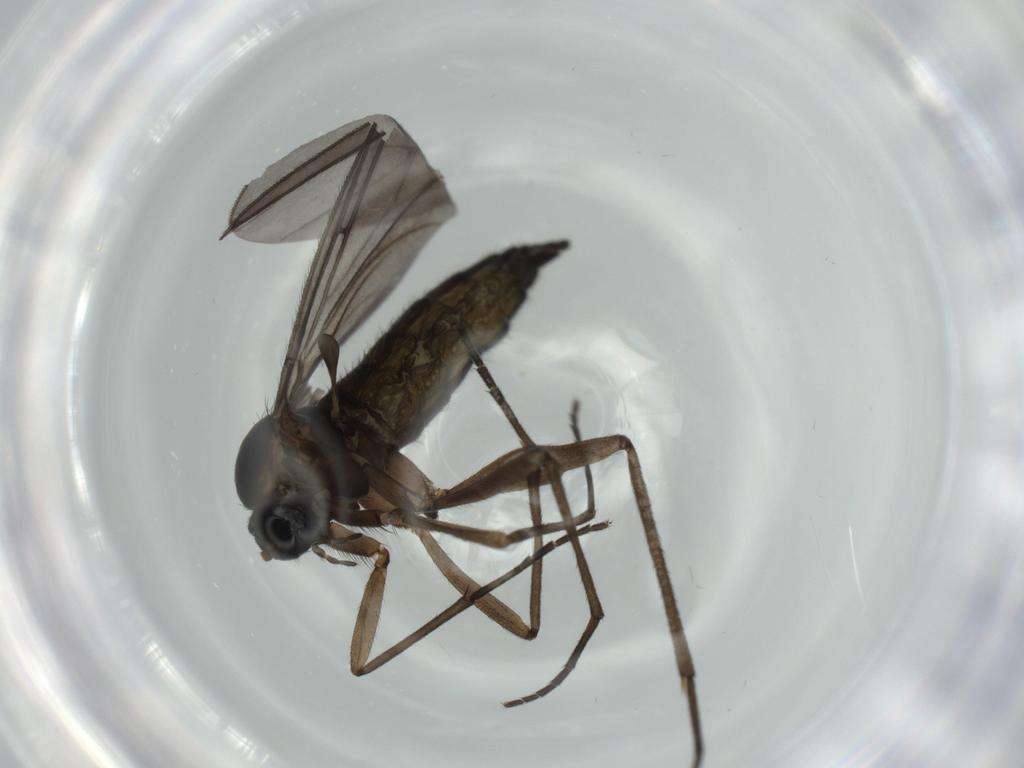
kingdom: Animalia
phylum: Arthropoda
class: Insecta
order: Diptera
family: Sciaridae
